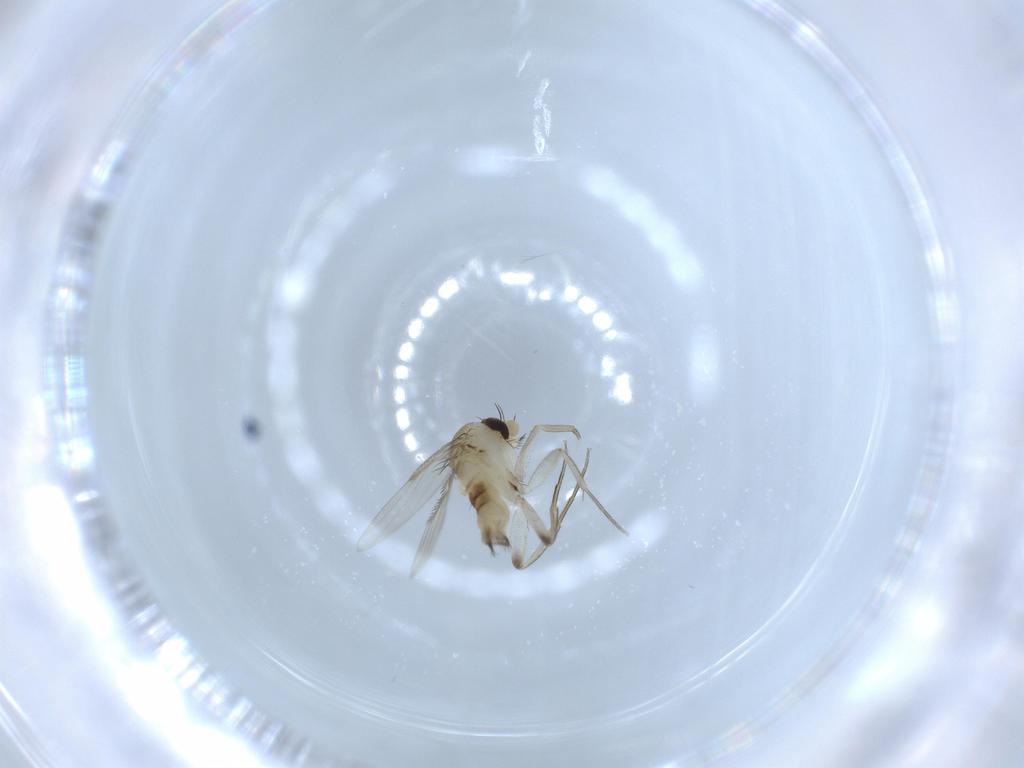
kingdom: Animalia
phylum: Arthropoda
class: Insecta
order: Diptera
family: Phoridae
